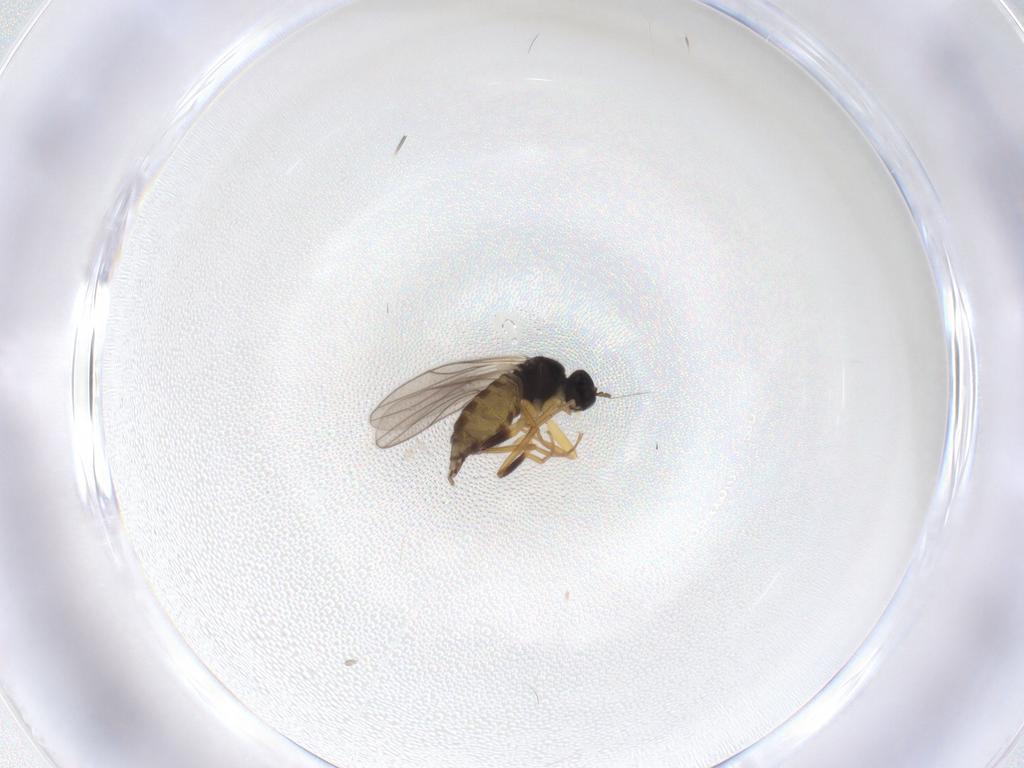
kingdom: Animalia
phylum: Arthropoda
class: Insecta
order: Diptera
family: Hybotidae
